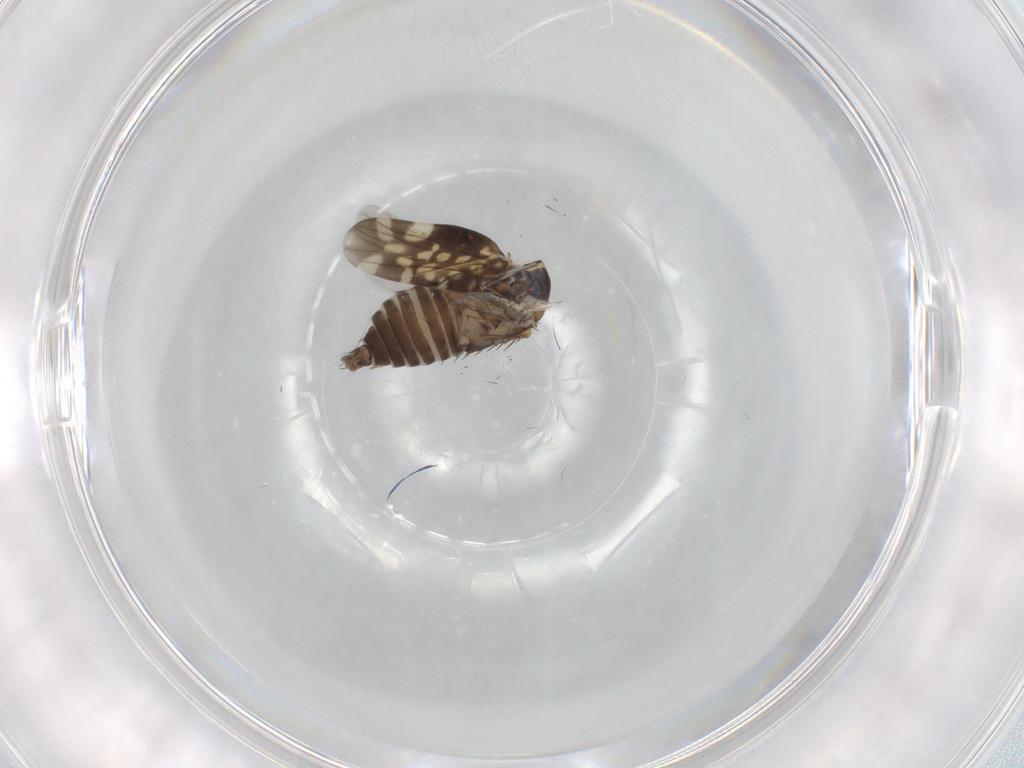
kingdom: Animalia
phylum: Arthropoda
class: Insecta
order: Hemiptera
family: Cicadellidae
